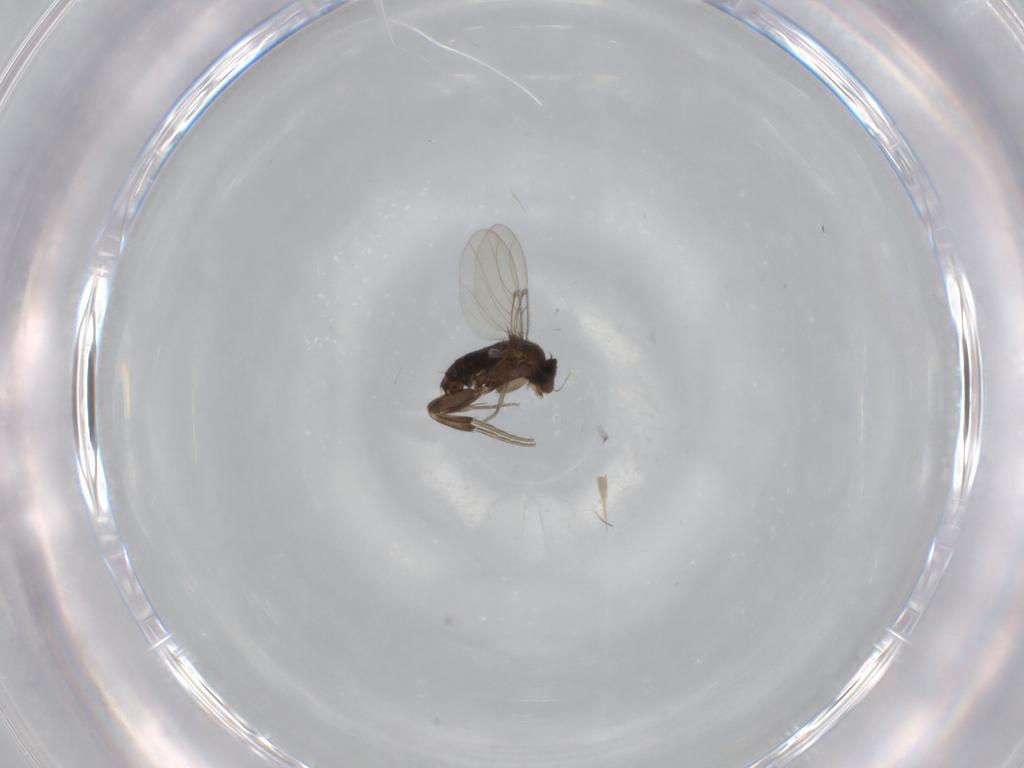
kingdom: Animalia
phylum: Arthropoda
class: Insecta
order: Diptera
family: Phoridae
